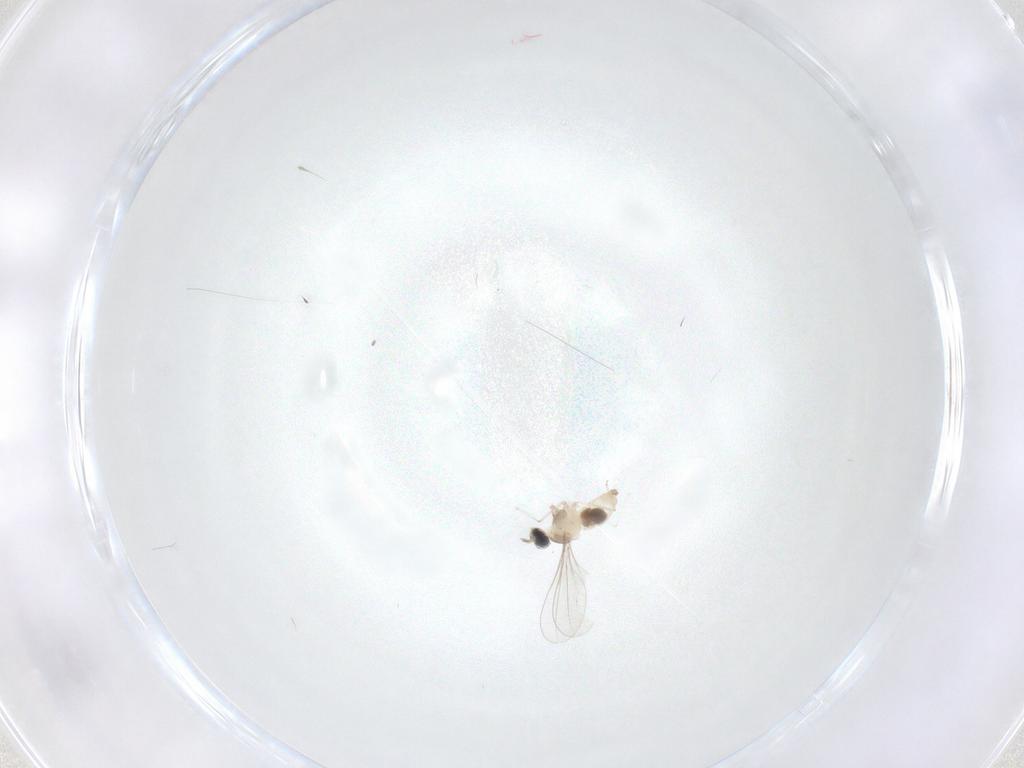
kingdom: Animalia
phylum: Arthropoda
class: Insecta
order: Diptera
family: Cecidomyiidae
